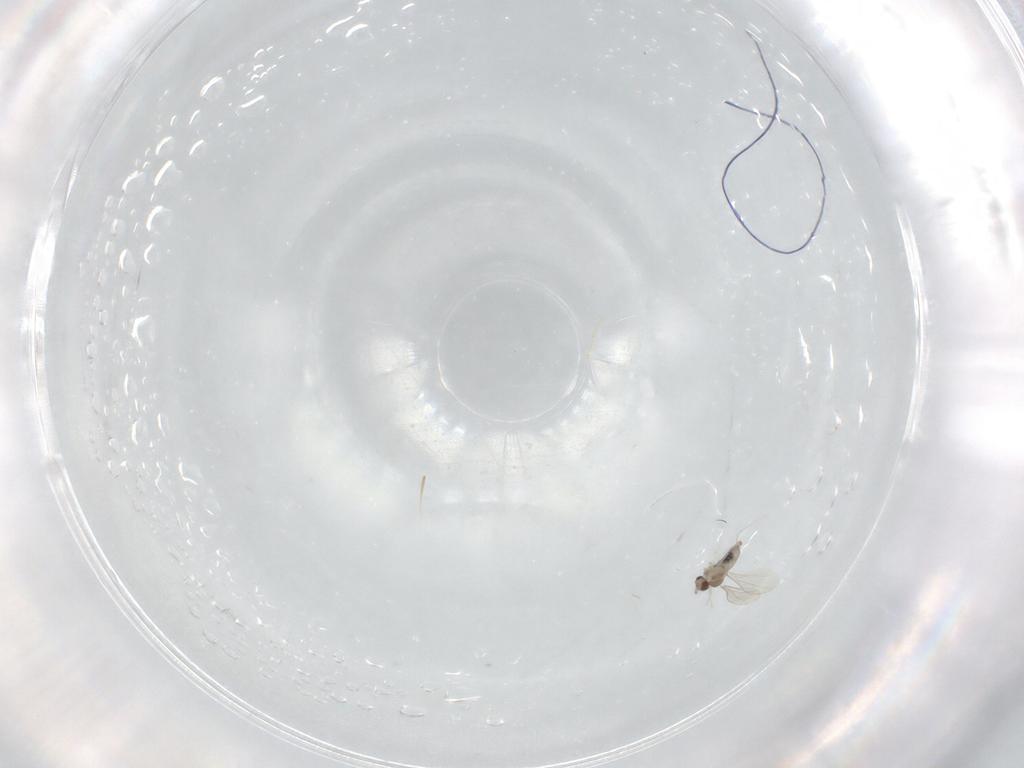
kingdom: Animalia
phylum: Arthropoda
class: Insecta
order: Diptera
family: Cecidomyiidae
